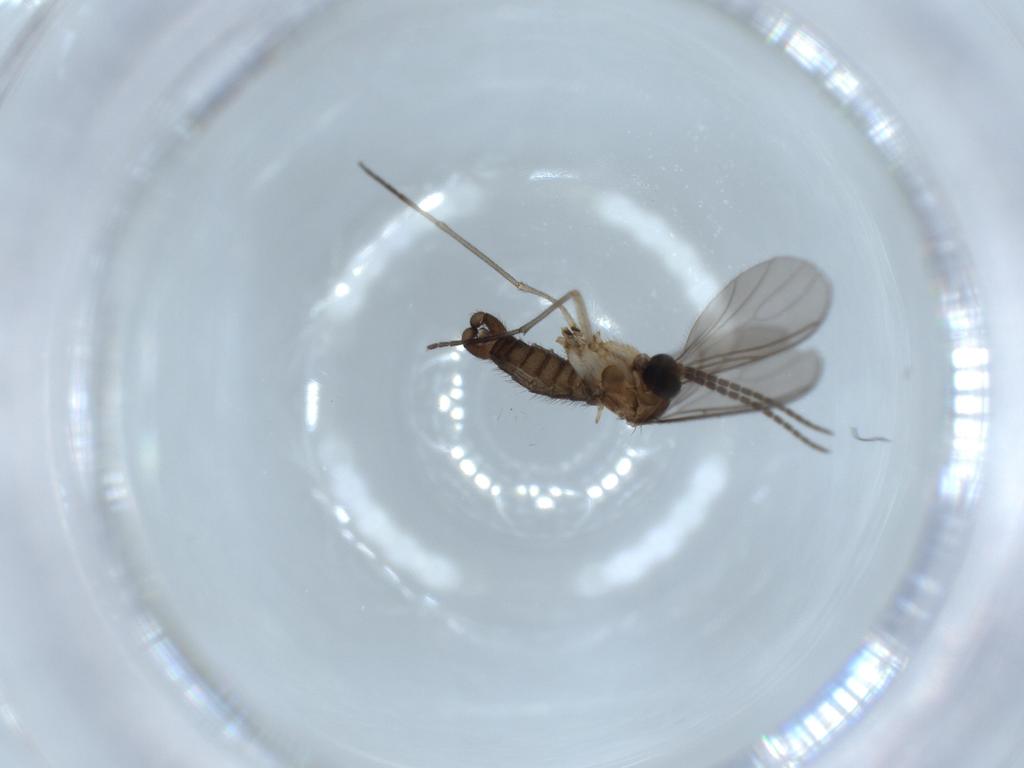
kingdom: Animalia
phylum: Arthropoda
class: Insecta
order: Diptera
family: Sciaridae
